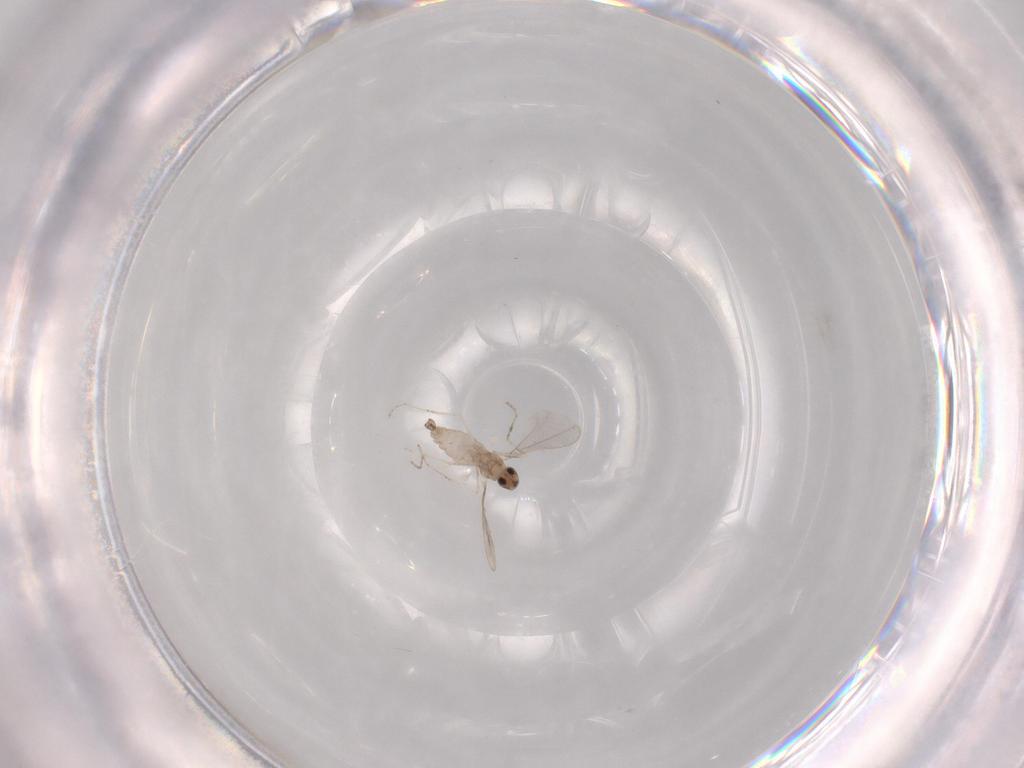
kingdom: Animalia
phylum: Arthropoda
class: Insecta
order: Diptera
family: Cecidomyiidae
